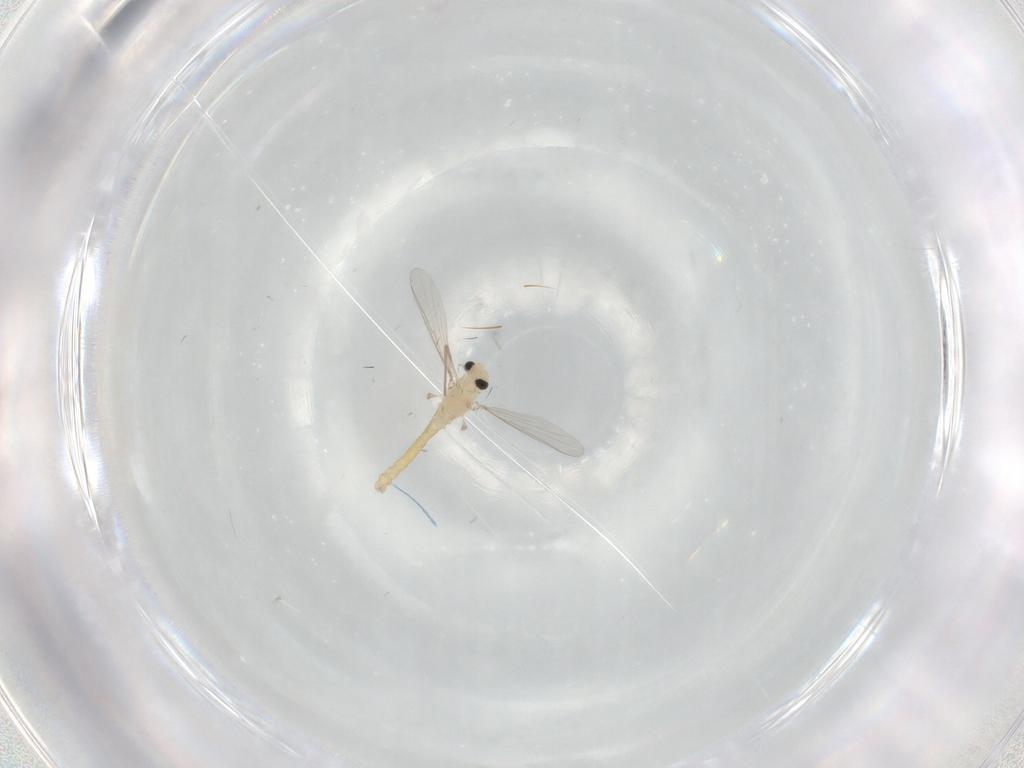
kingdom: Animalia
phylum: Arthropoda
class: Insecta
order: Diptera
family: Chironomidae
